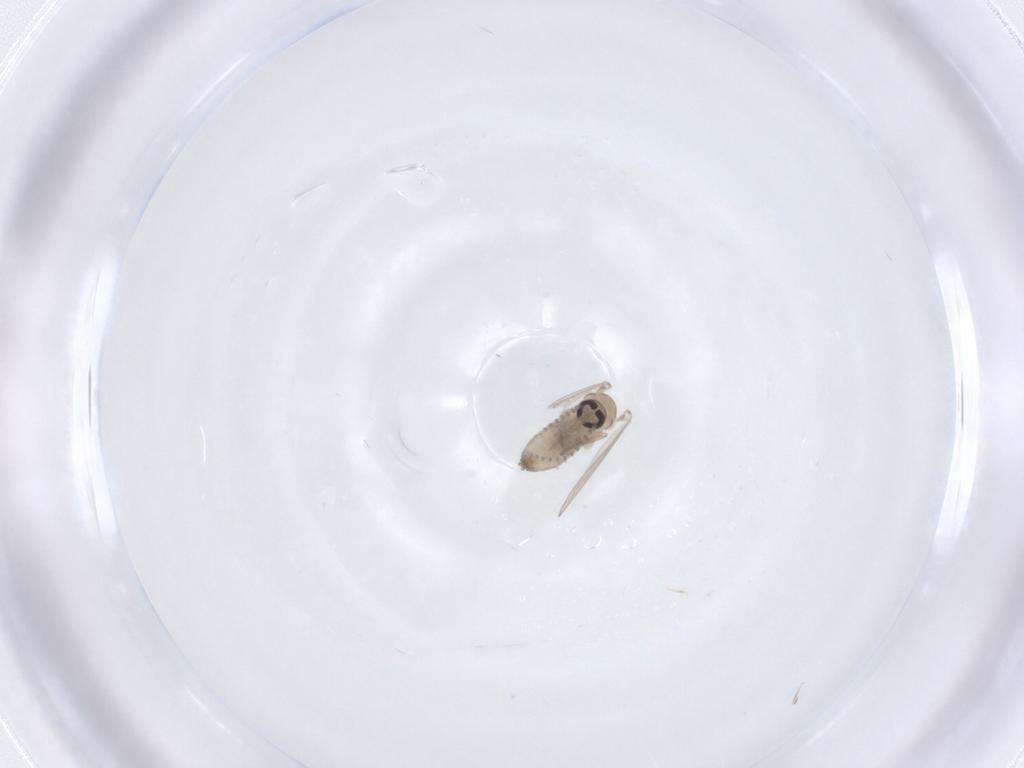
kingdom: Animalia
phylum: Arthropoda
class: Insecta
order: Diptera
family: Psychodidae
